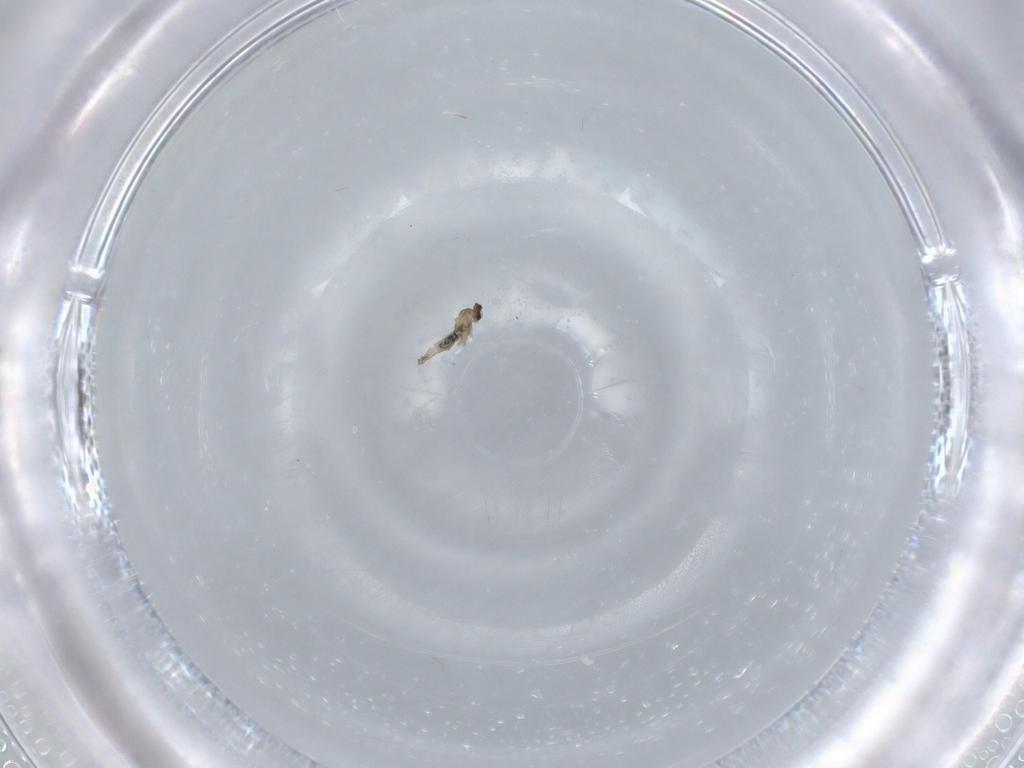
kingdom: Animalia
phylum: Arthropoda
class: Insecta
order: Diptera
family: Cecidomyiidae
